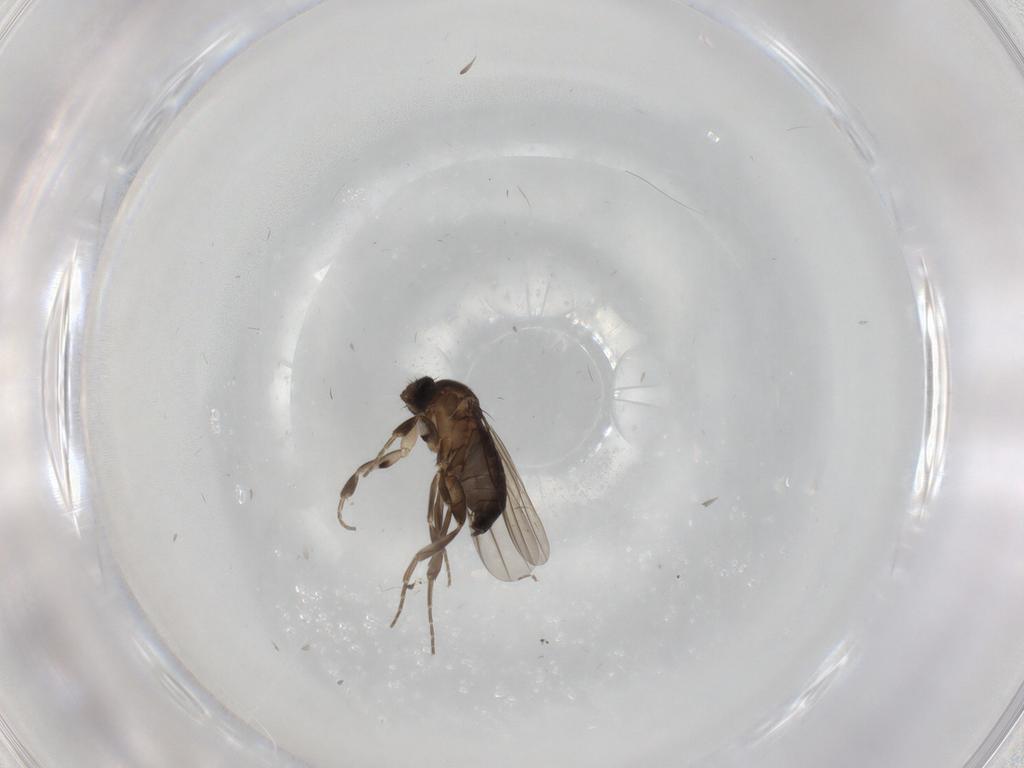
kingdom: Animalia
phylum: Arthropoda
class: Insecta
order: Diptera
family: Phoridae
